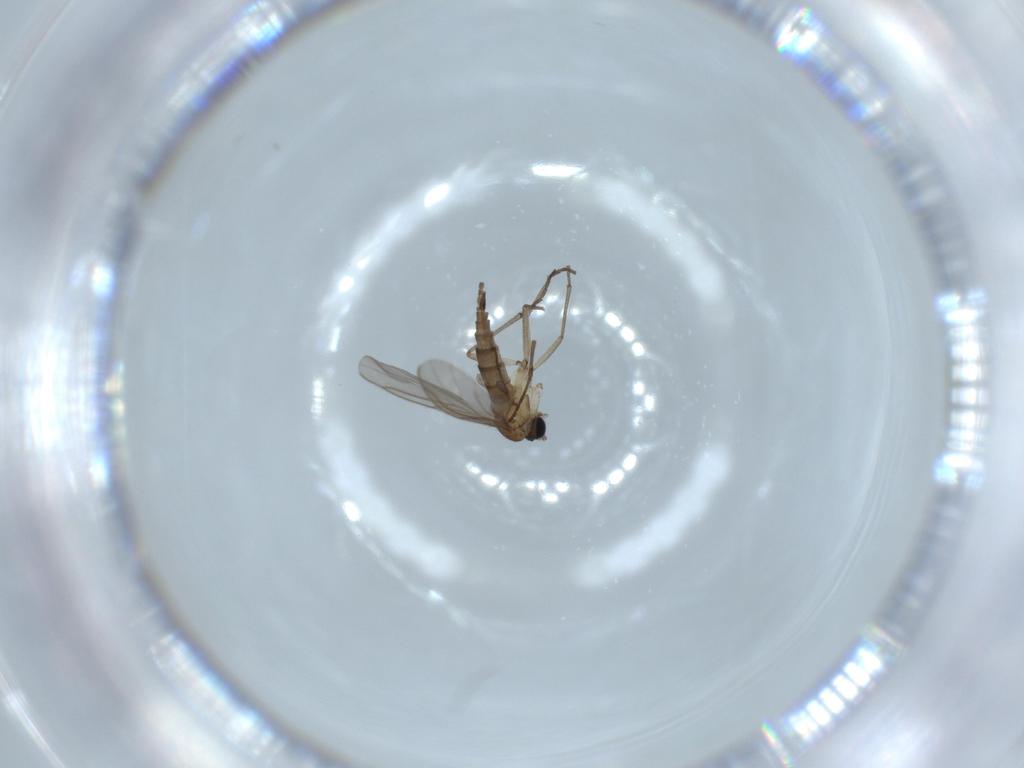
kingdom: Animalia
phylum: Arthropoda
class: Insecta
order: Diptera
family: Sciaridae
